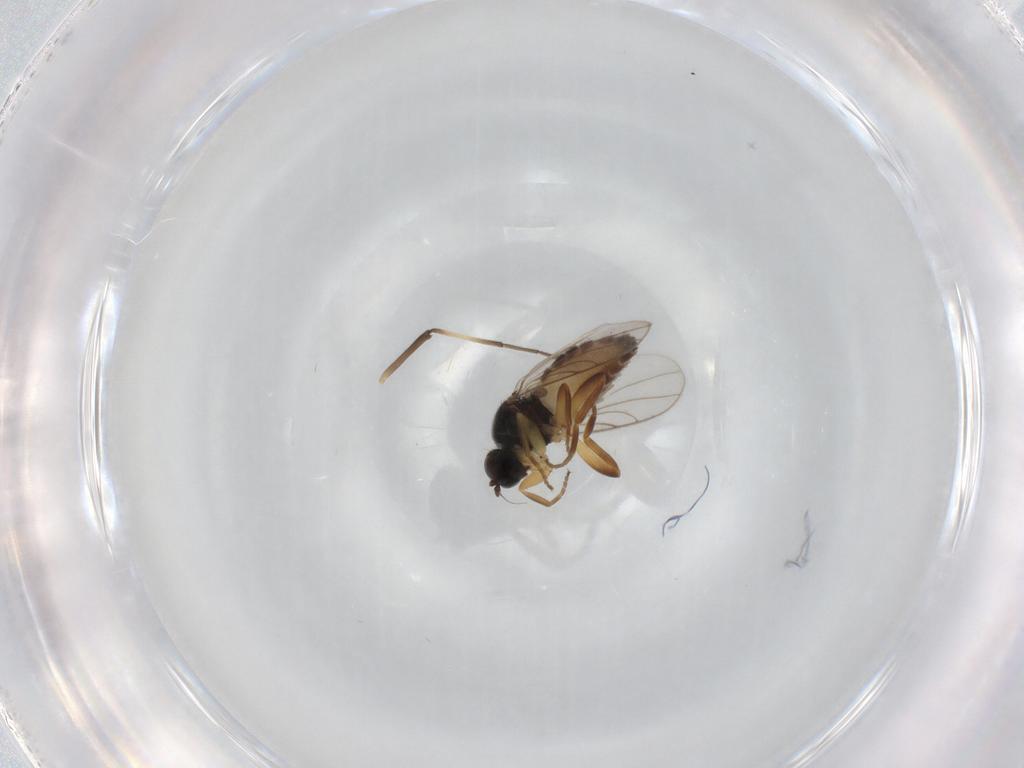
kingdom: Animalia
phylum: Arthropoda
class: Insecta
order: Diptera
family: Hybotidae
